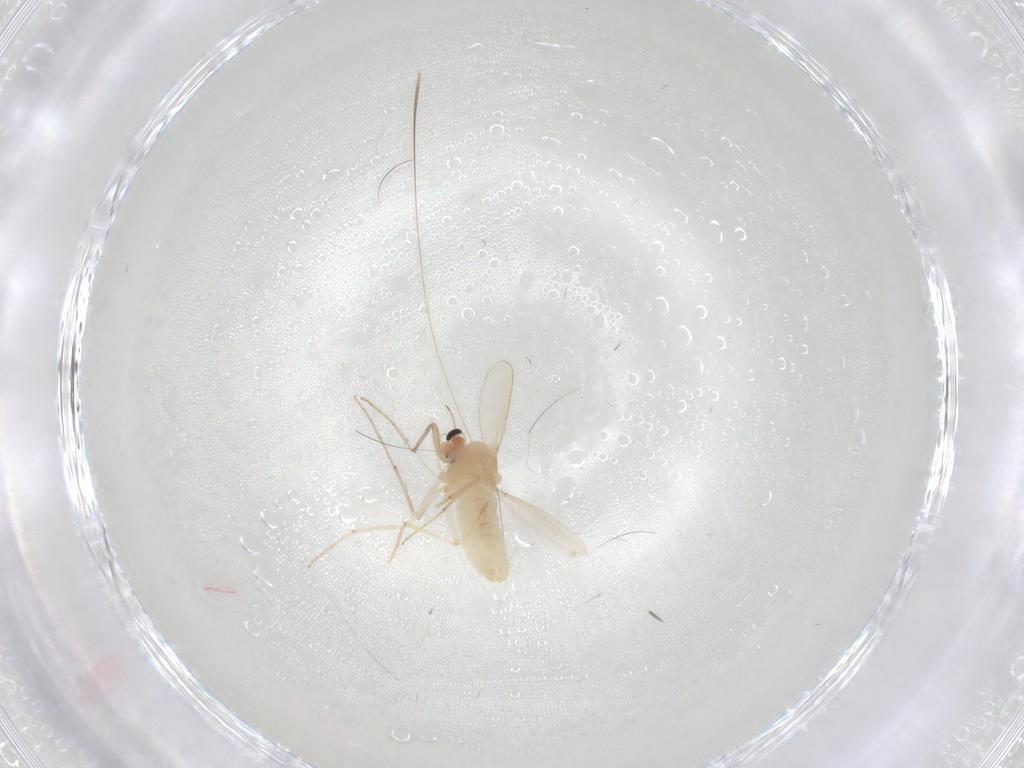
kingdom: Animalia
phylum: Arthropoda
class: Insecta
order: Diptera
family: Chironomidae
